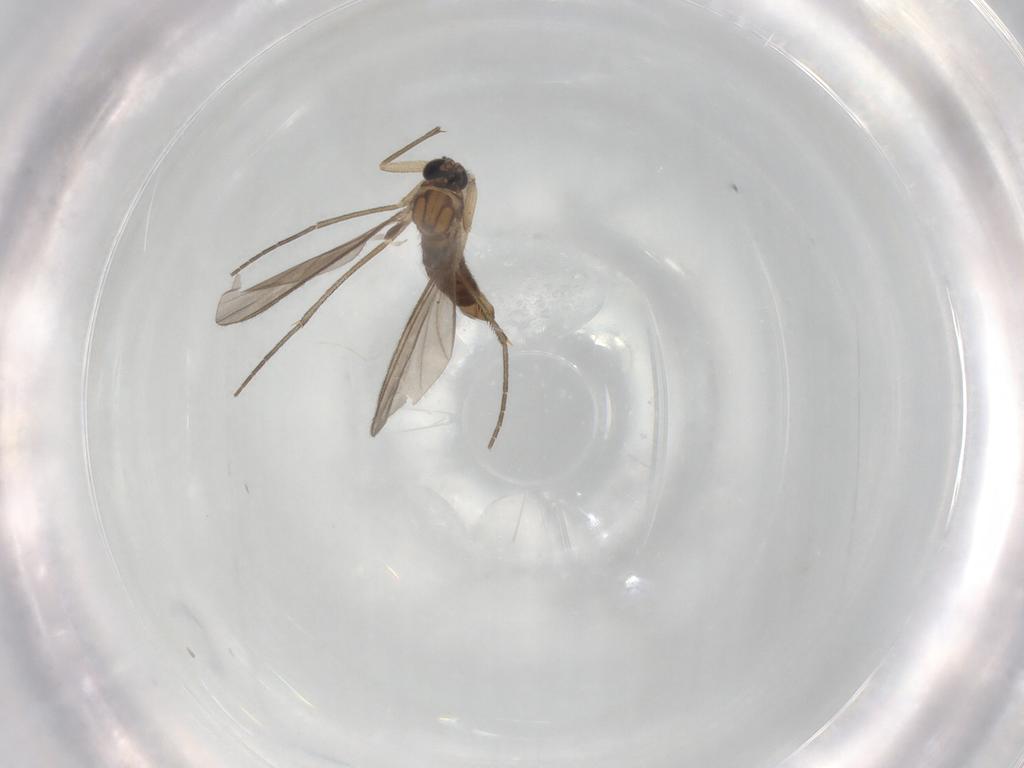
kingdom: Animalia
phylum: Arthropoda
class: Insecta
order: Diptera
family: Sciaridae
